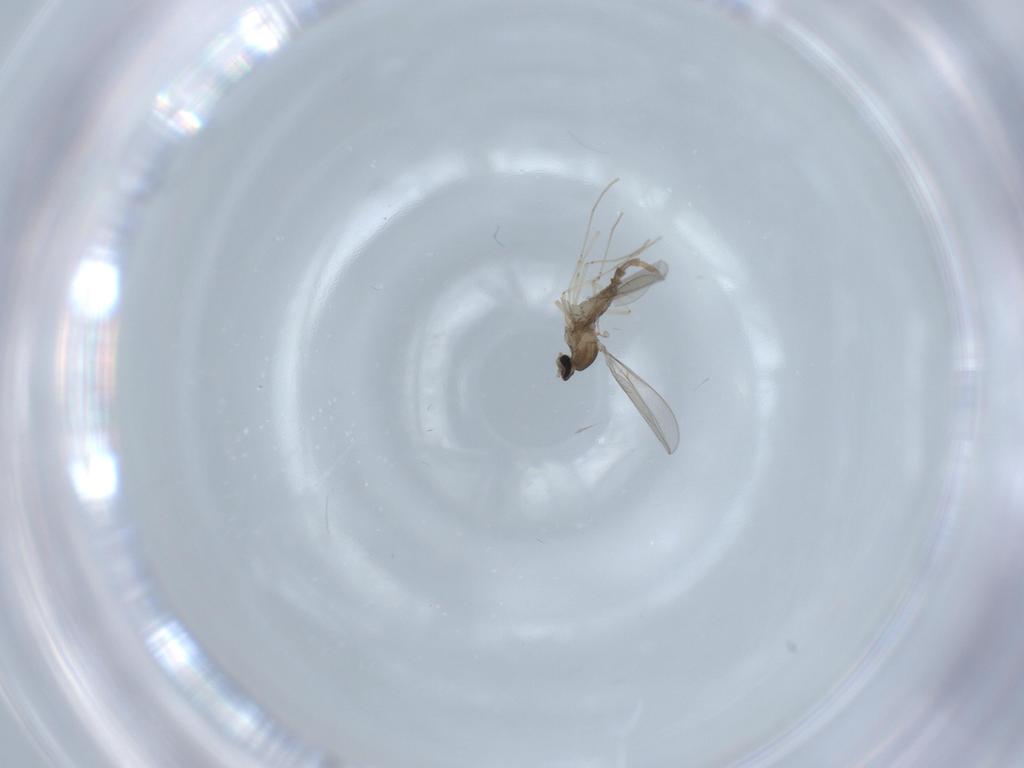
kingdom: Animalia
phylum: Arthropoda
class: Insecta
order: Diptera
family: Cecidomyiidae
